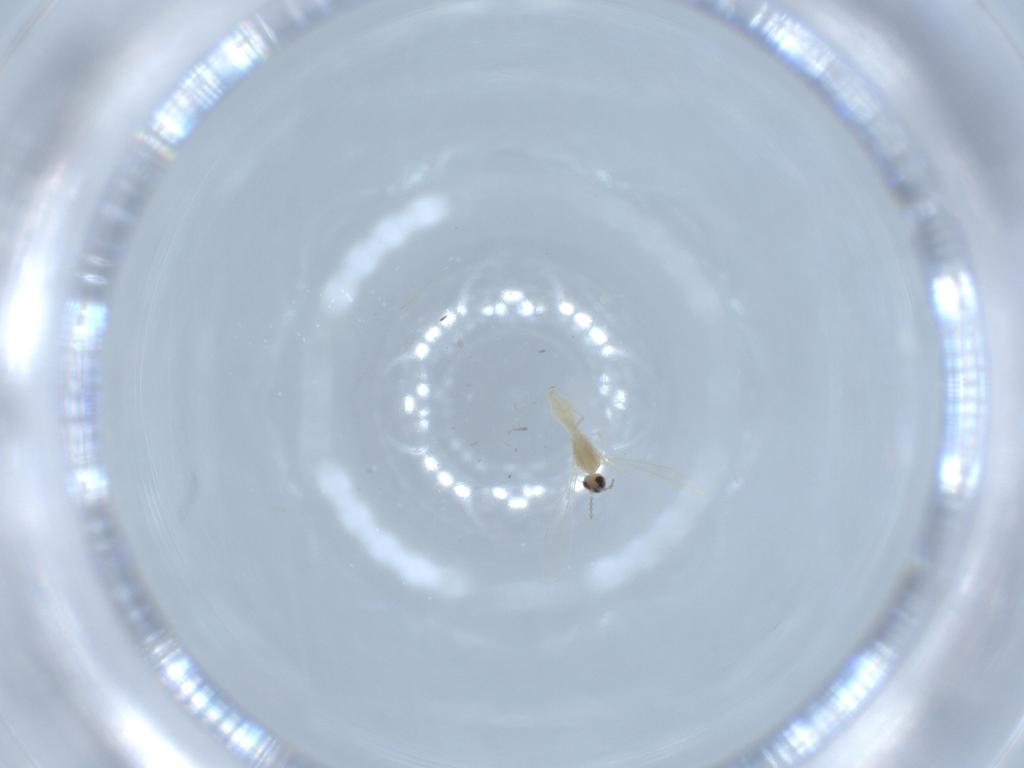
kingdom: Animalia
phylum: Arthropoda
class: Insecta
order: Diptera
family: Cecidomyiidae
